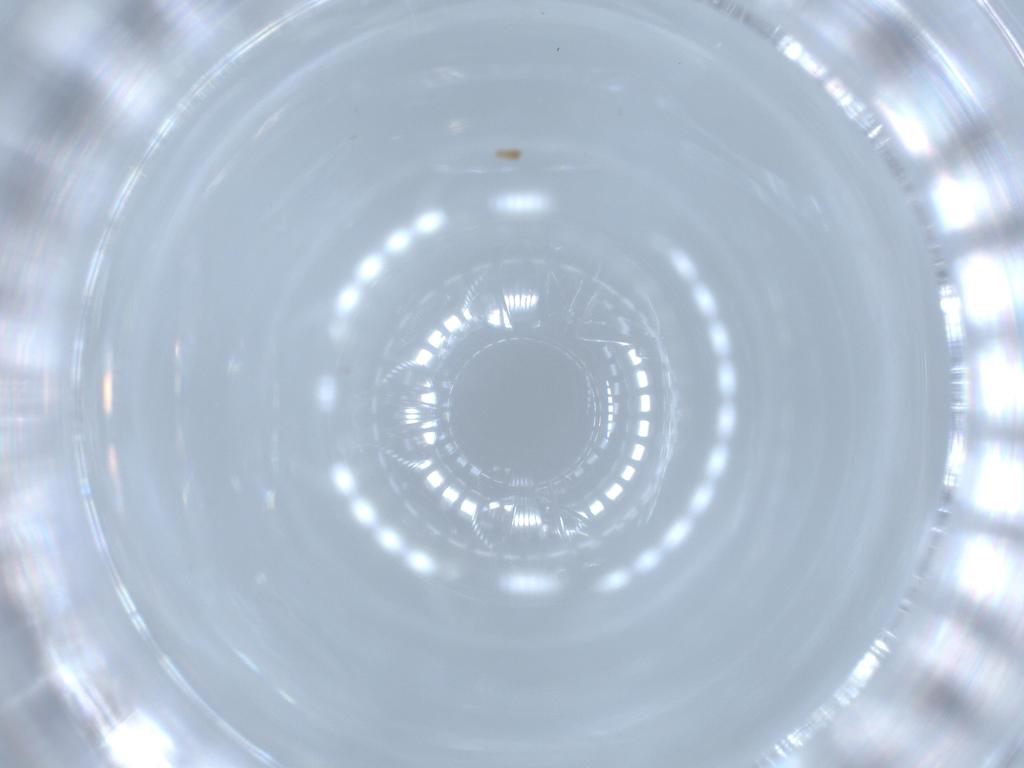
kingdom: Animalia
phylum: Arthropoda
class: Insecta
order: Diptera
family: Sphaeroceridae
